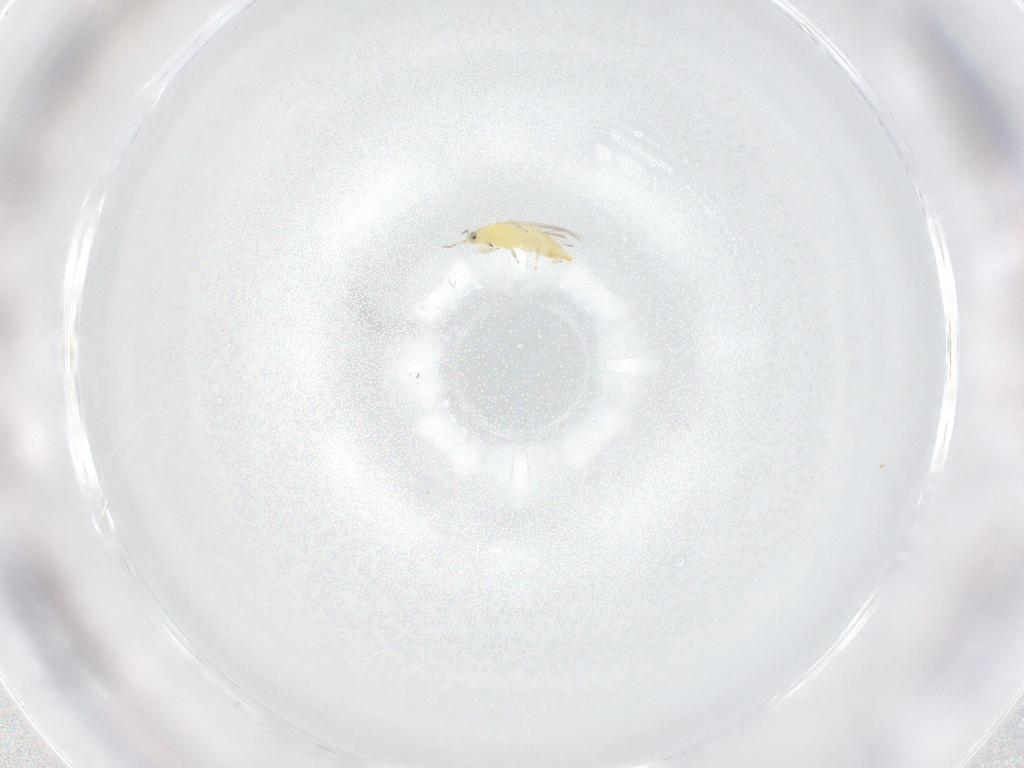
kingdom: Animalia
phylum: Arthropoda
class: Insecta
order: Thysanoptera
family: Thripidae
